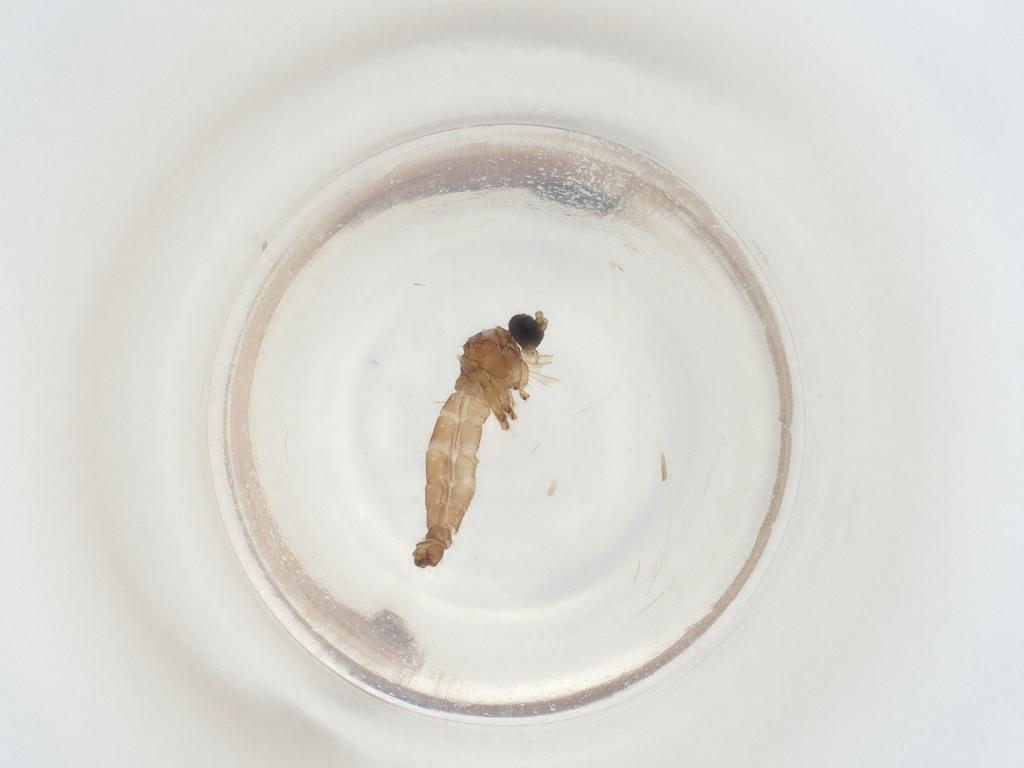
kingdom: Animalia
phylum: Arthropoda
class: Insecta
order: Diptera
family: Sciaridae
